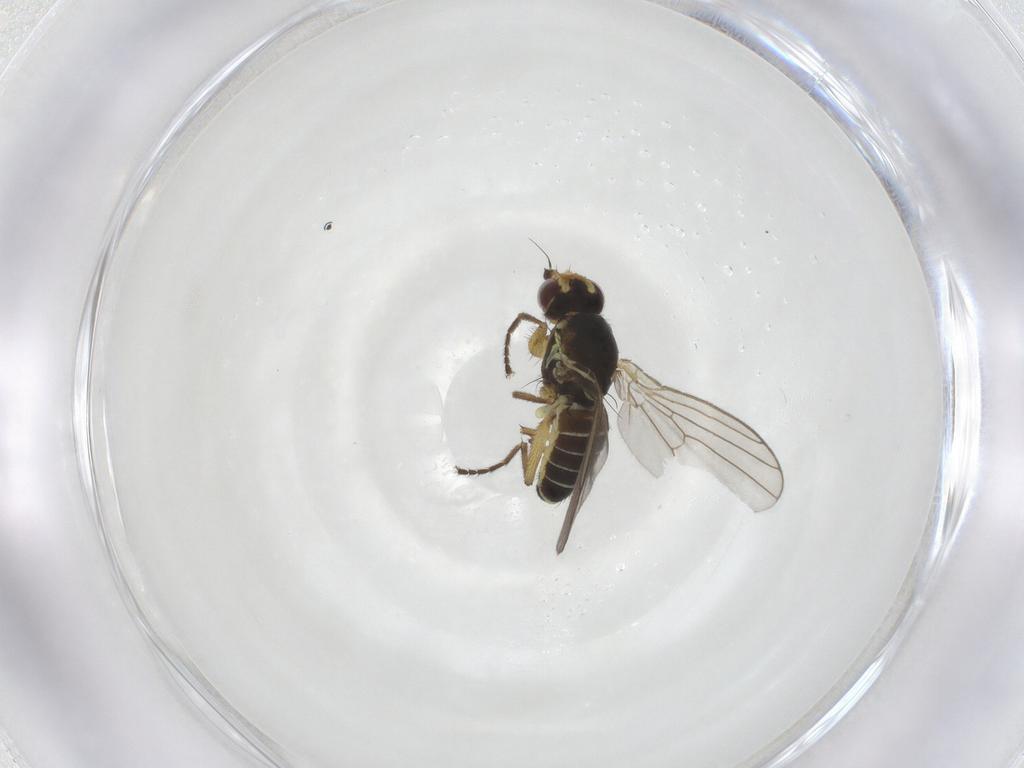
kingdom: Animalia
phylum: Arthropoda
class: Insecta
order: Diptera
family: Agromyzidae
